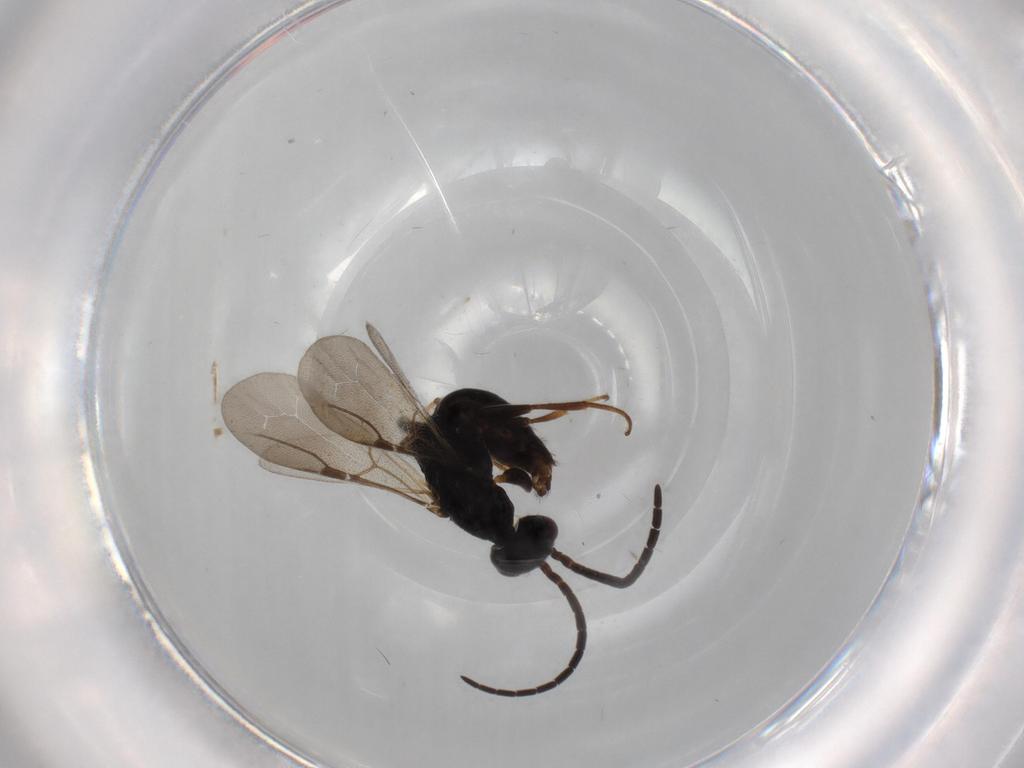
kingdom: Animalia
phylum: Arthropoda
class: Insecta
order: Hymenoptera
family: Bethylidae
